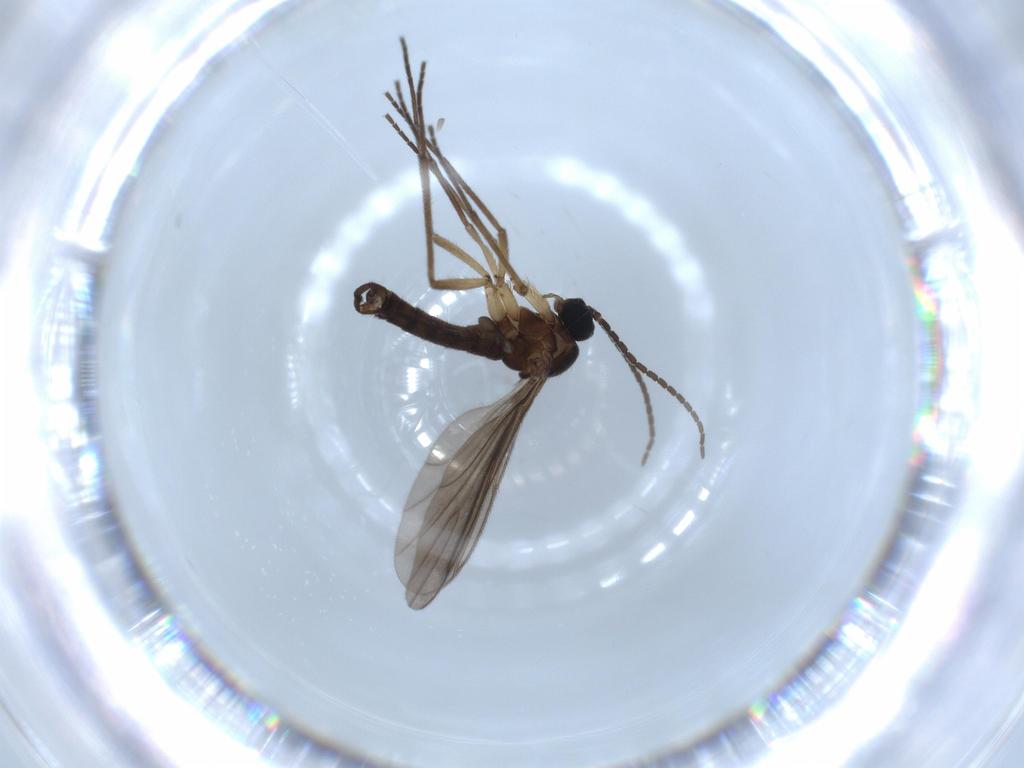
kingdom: Animalia
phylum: Arthropoda
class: Insecta
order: Diptera
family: Sciaridae
